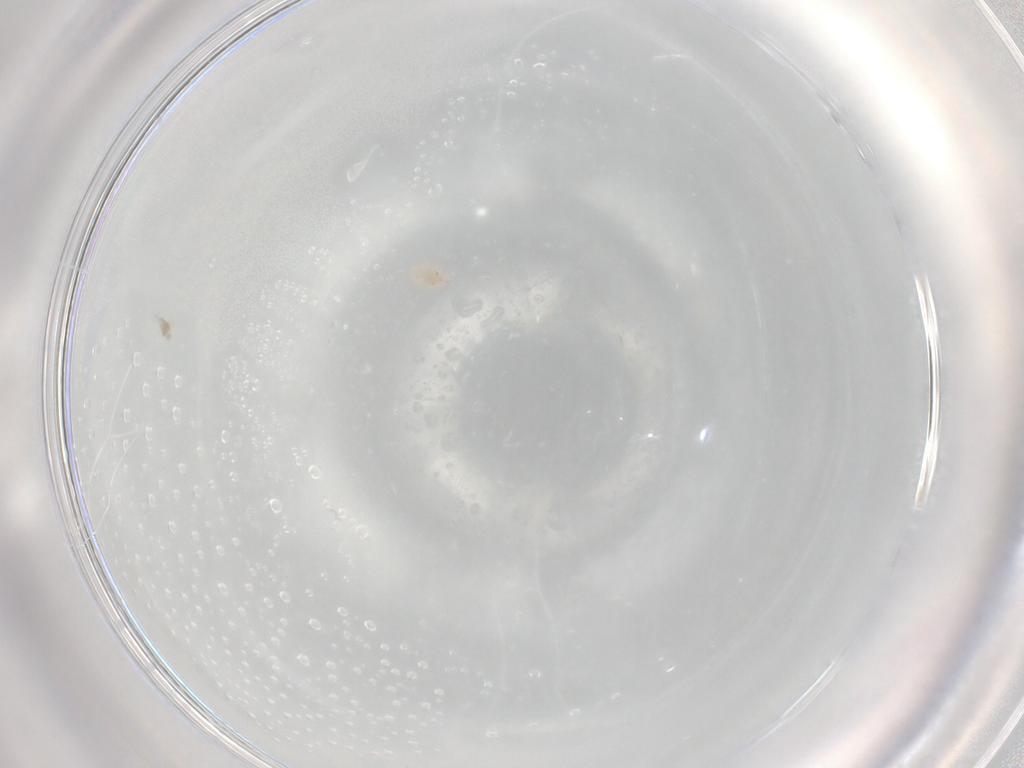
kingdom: Animalia
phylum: Arthropoda
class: Arachnida
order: Trombidiformes
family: Bdellidae
